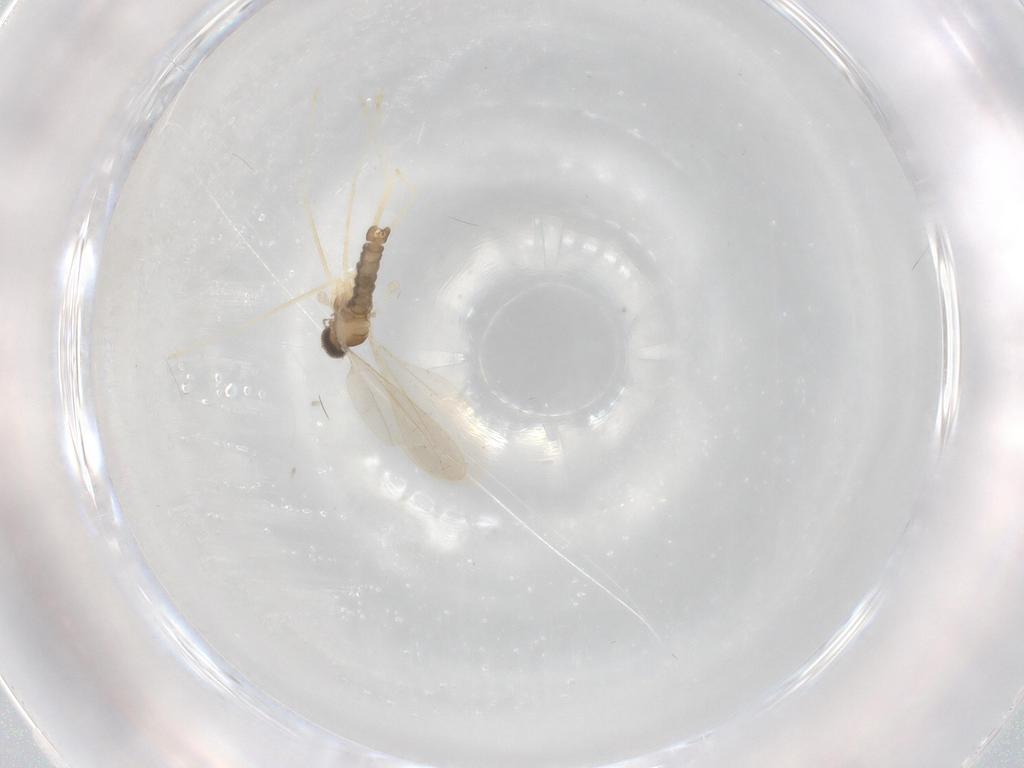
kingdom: Animalia
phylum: Arthropoda
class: Insecta
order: Diptera
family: Cecidomyiidae
